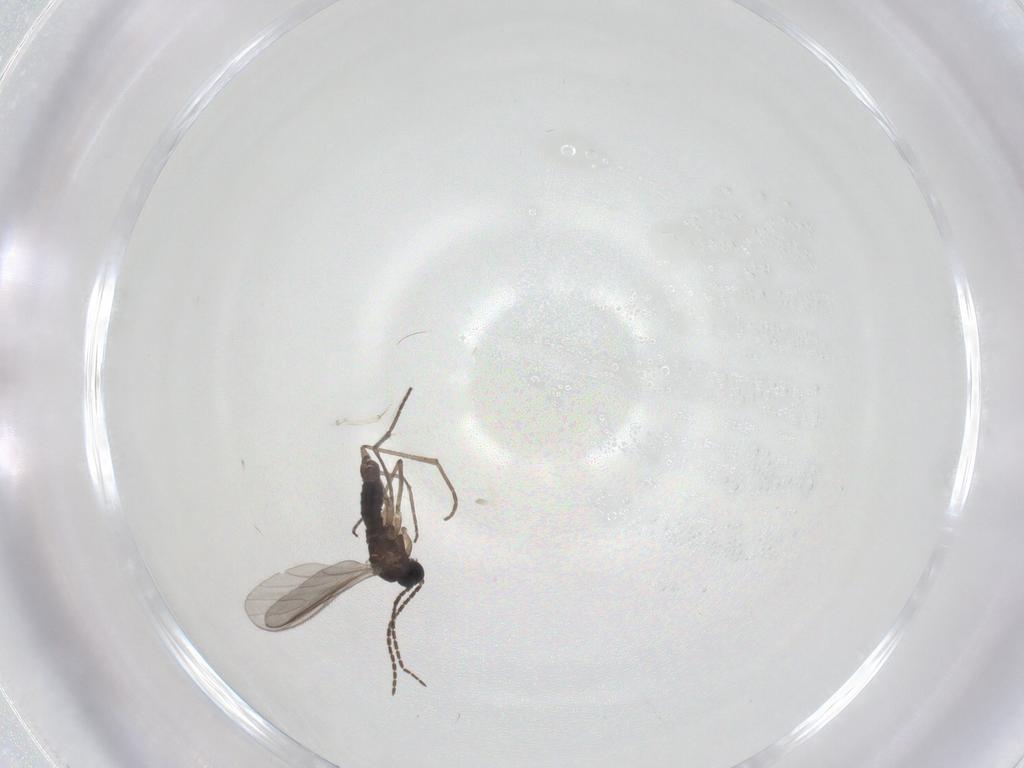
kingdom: Animalia
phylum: Arthropoda
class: Insecta
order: Diptera
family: Sciaridae
